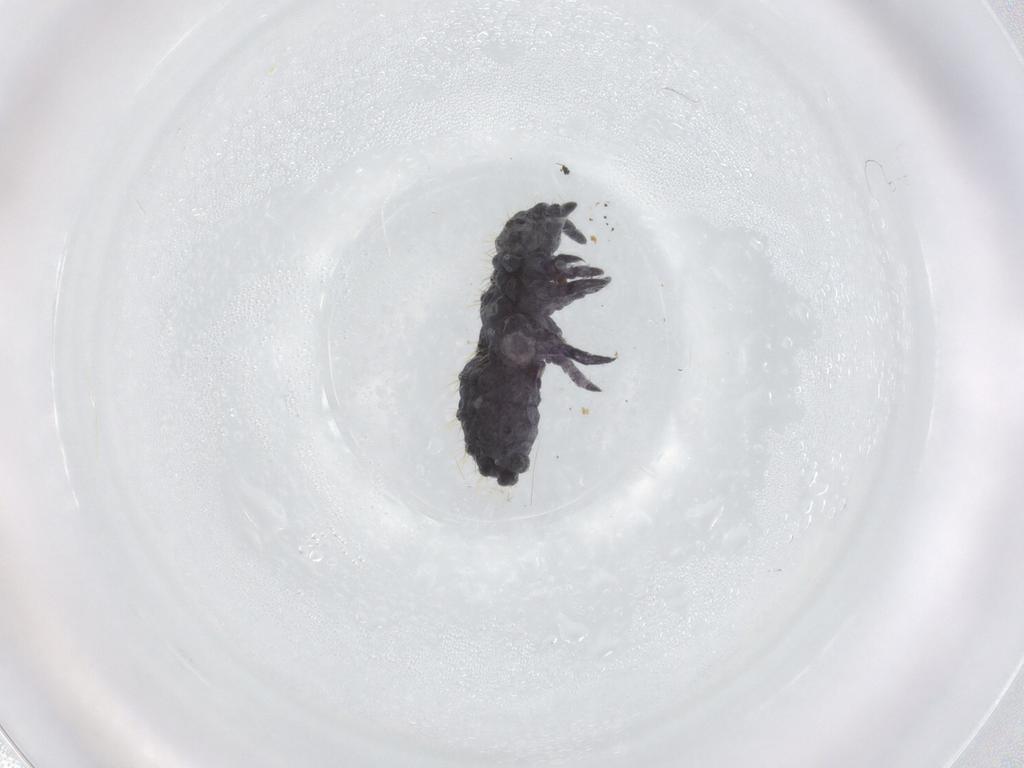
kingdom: Animalia
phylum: Arthropoda
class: Collembola
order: Poduromorpha
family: Neanuridae
